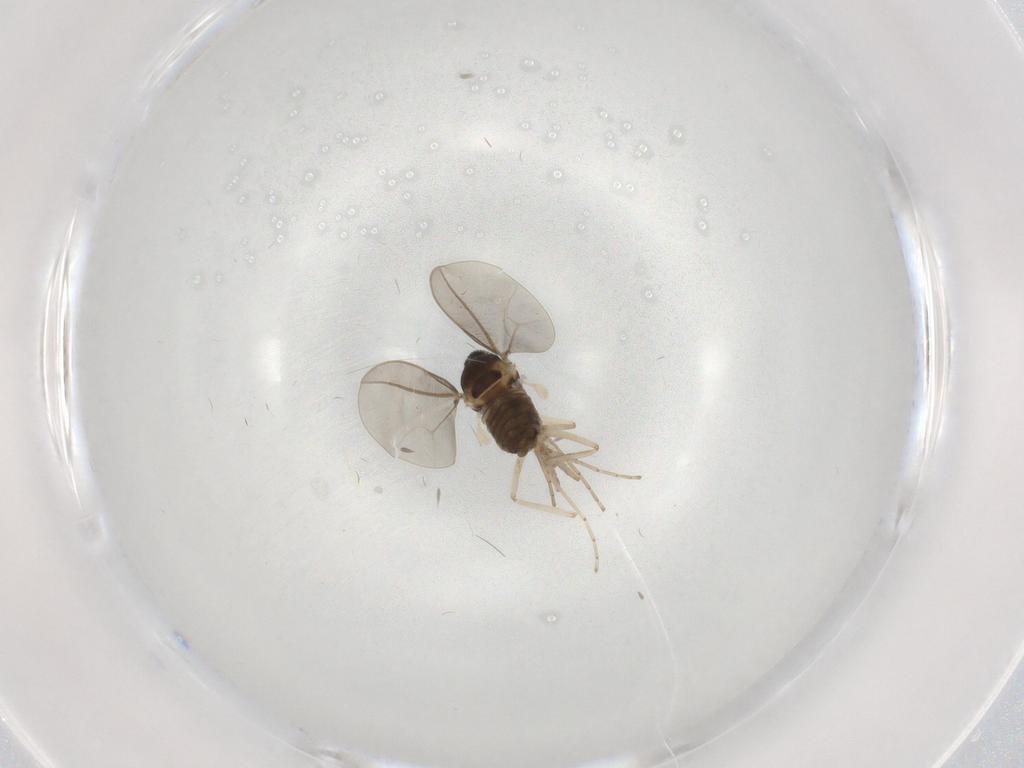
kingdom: Animalia
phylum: Arthropoda
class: Insecta
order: Diptera
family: Cecidomyiidae
